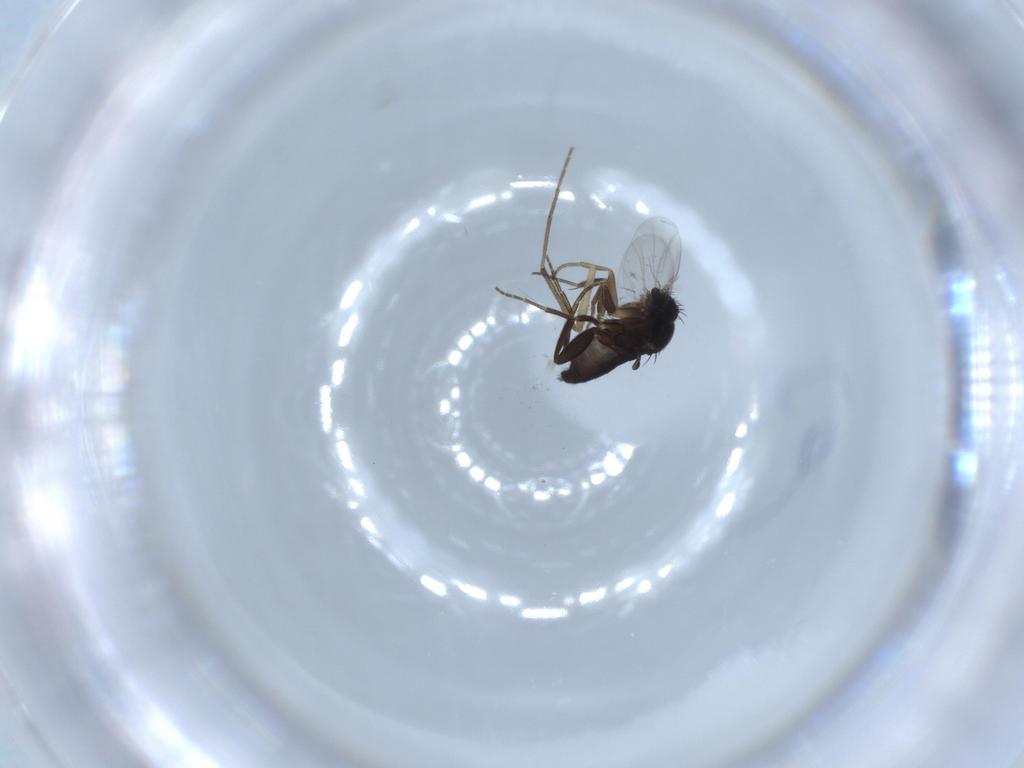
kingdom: Animalia
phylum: Arthropoda
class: Insecta
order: Diptera
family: Phoridae
